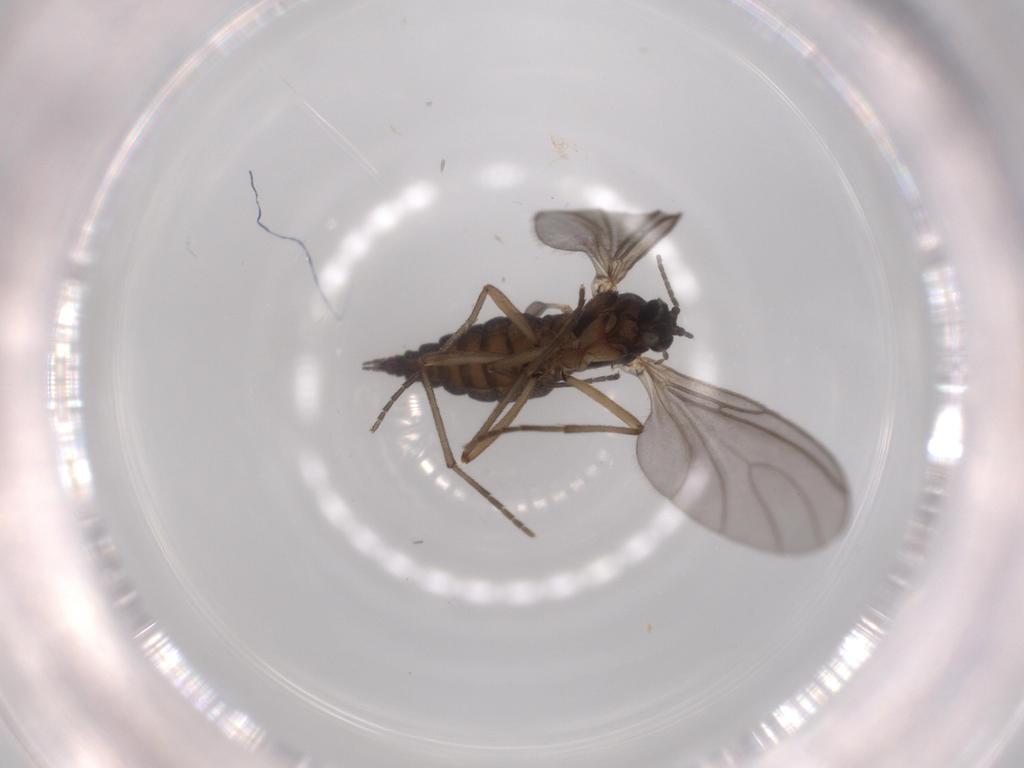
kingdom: Animalia
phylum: Arthropoda
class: Insecta
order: Diptera
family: Sciaridae
